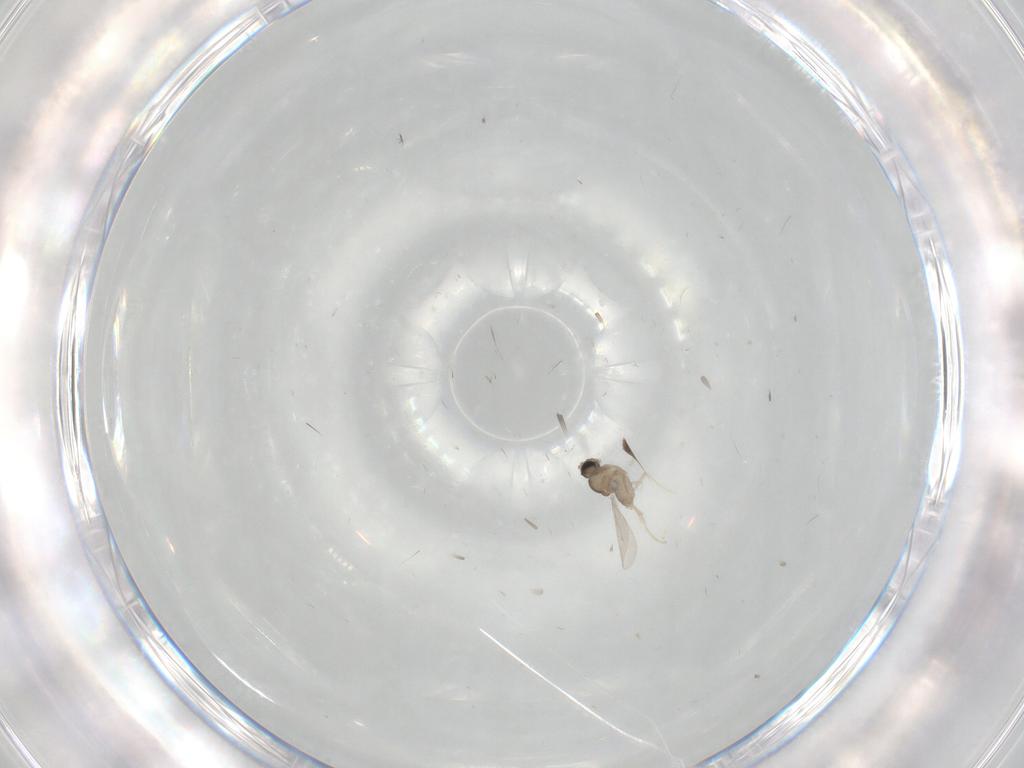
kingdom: Animalia
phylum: Arthropoda
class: Insecta
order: Diptera
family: Cecidomyiidae
